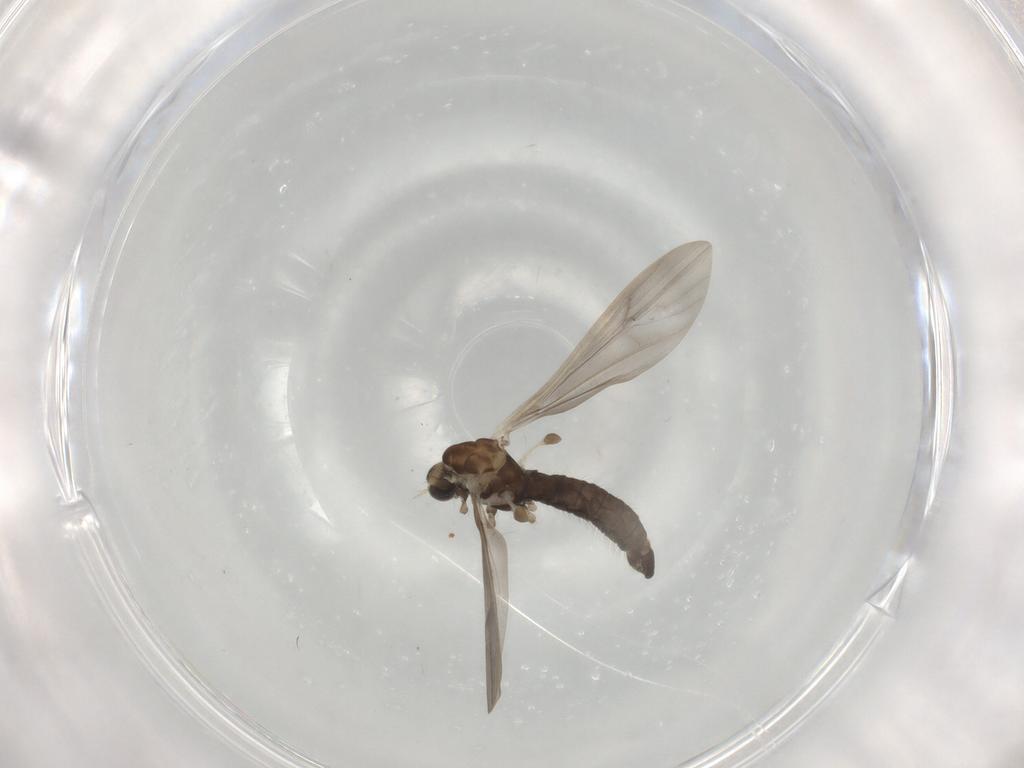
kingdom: Animalia
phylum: Arthropoda
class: Insecta
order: Diptera
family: Limoniidae
